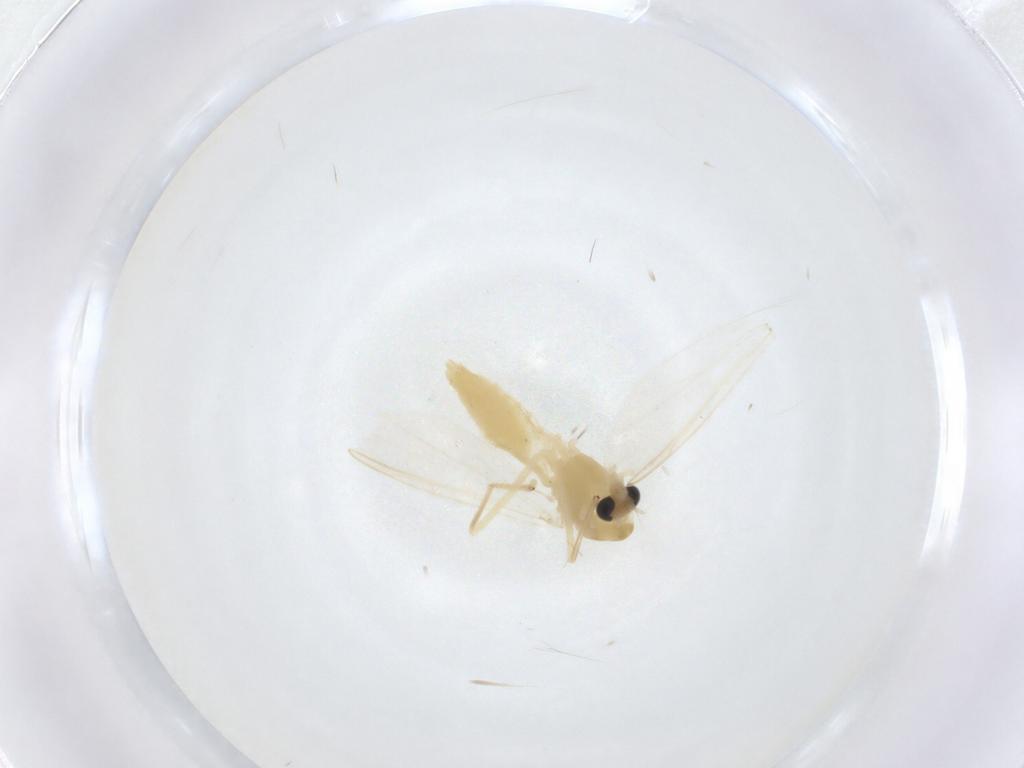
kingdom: Animalia
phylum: Arthropoda
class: Insecta
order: Diptera
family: Chironomidae
